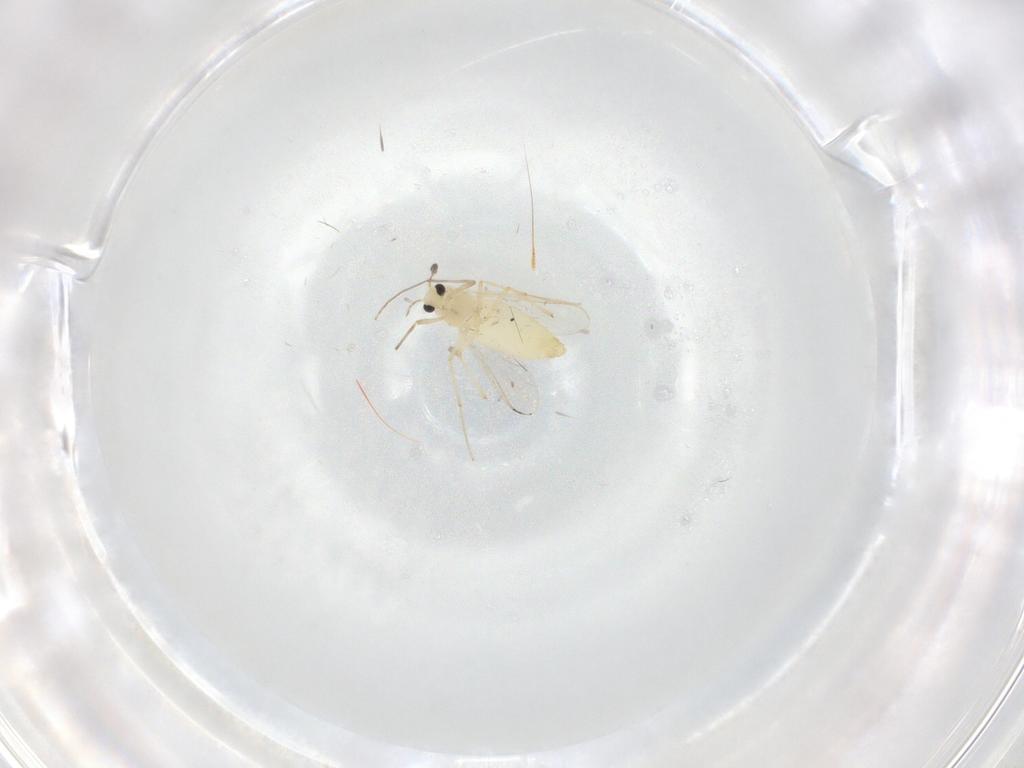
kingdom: Animalia
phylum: Arthropoda
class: Insecta
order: Diptera
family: Chironomidae
